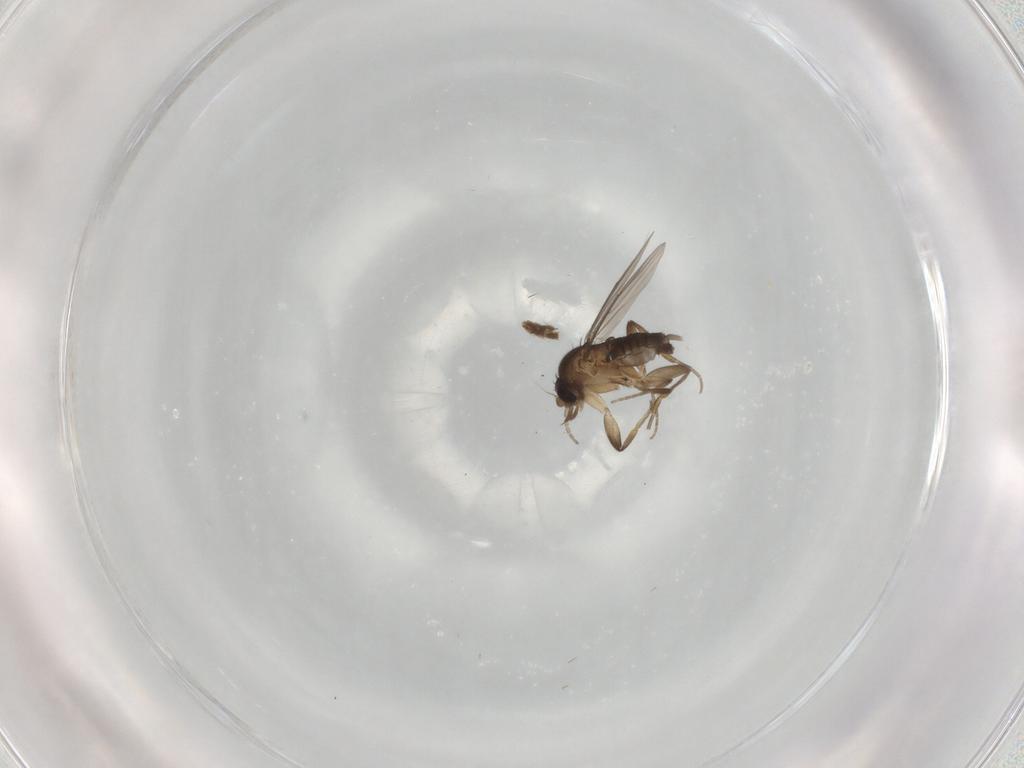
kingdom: Animalia
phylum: Arthropoda
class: Insecta
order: Diptera
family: Phoridae
